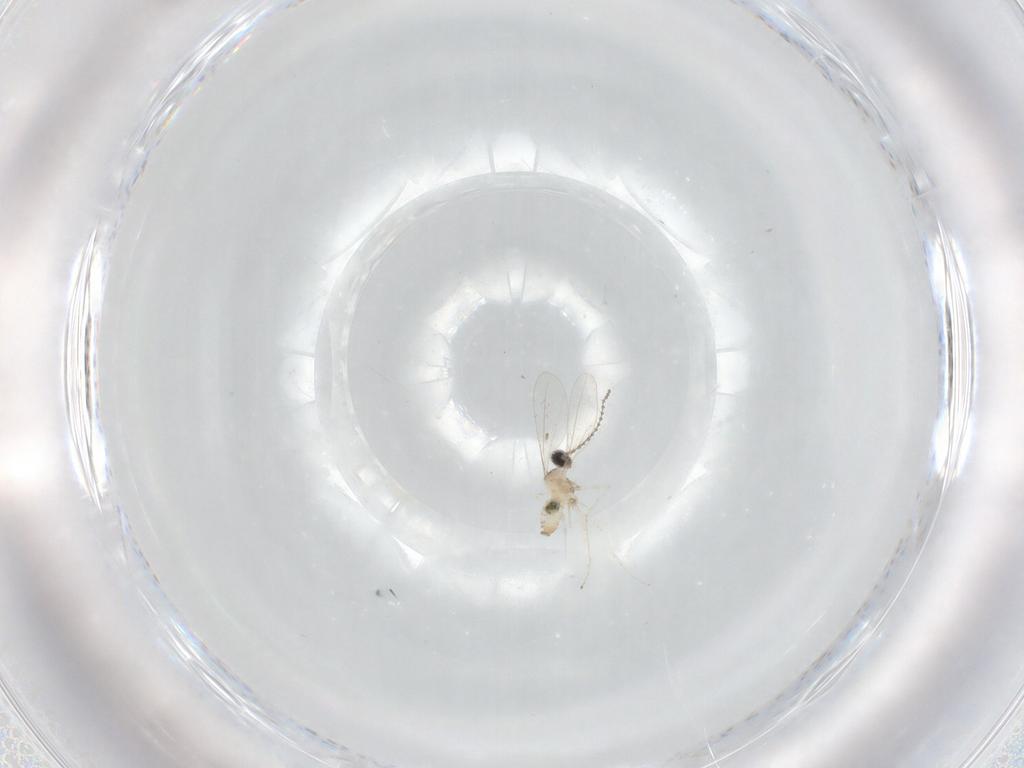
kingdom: Animalia
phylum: Arthropoda
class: Insecta
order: Diptera
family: Cecidomyiidae
